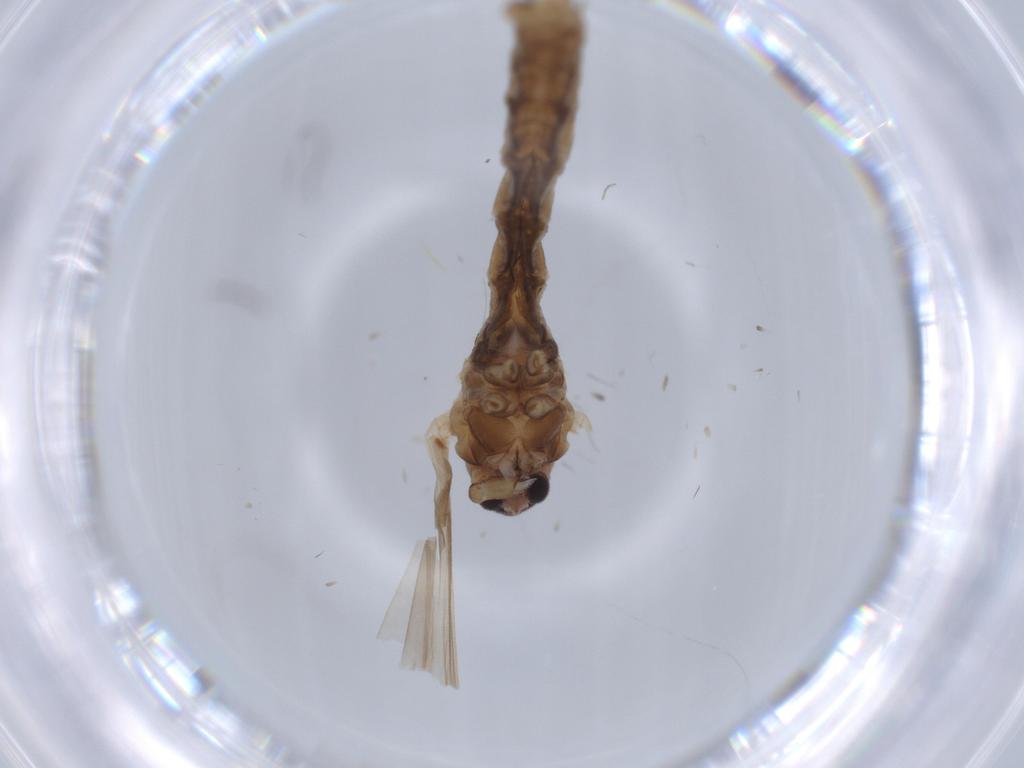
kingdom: Animalia
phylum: Arthropoda
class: Insecta
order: Diptera
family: Cecidomyiidae
